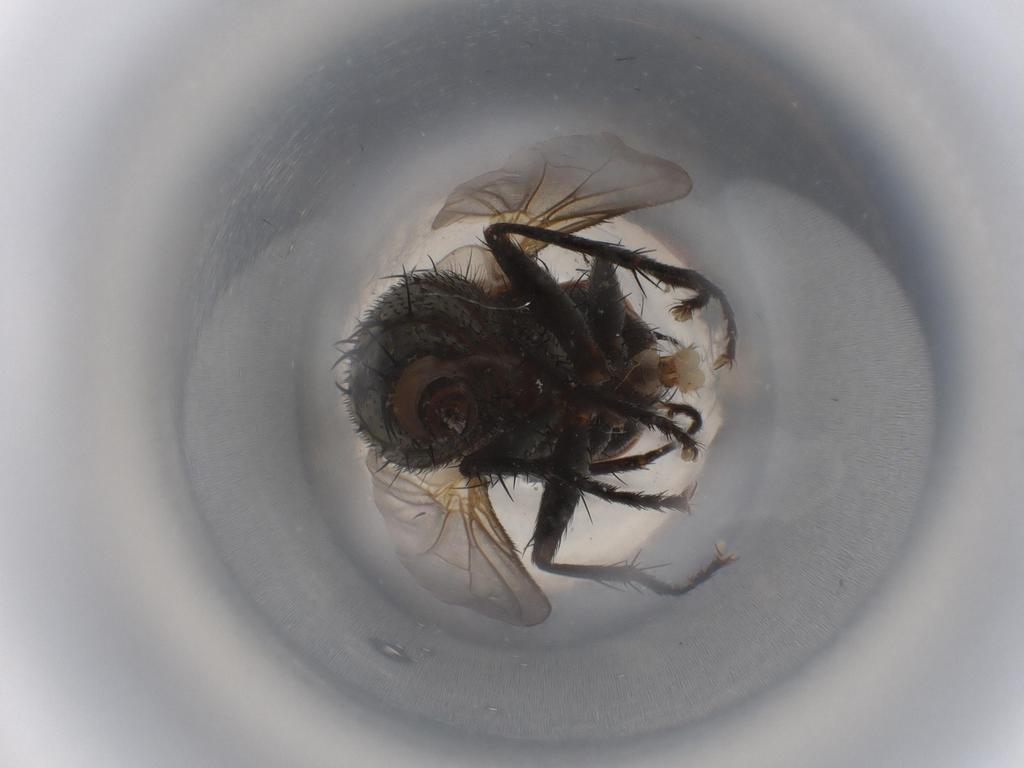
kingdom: Animalia
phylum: Arthropoda
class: Insecta
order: Diptera
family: Tachinidae
